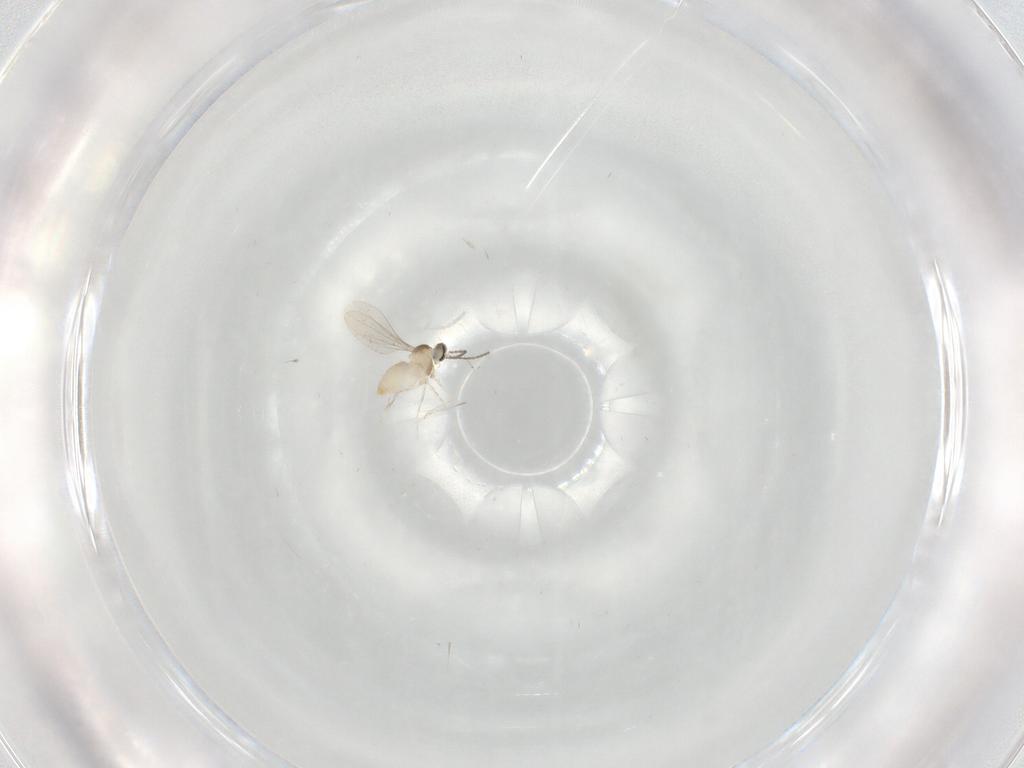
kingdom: Animalia
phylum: Arthropoda
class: Insecta
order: Diptera
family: Cecidomyiidae
